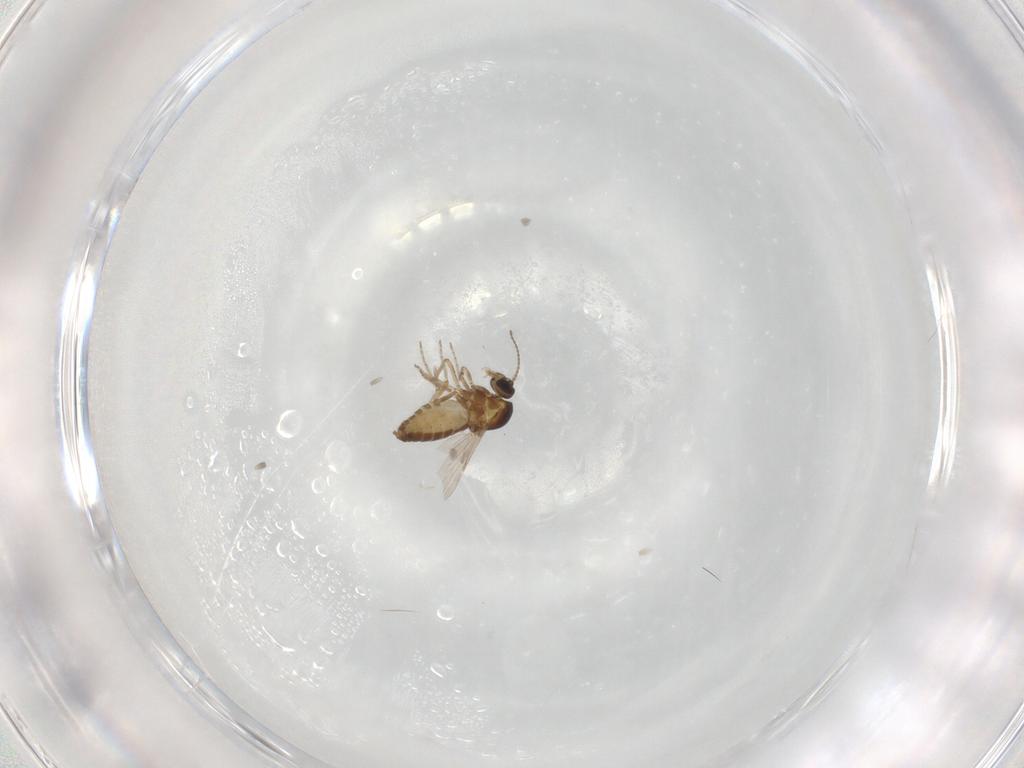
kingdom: Animalia
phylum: Arthropoda
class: Insecta
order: Diptera
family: Ceratopogonidae
